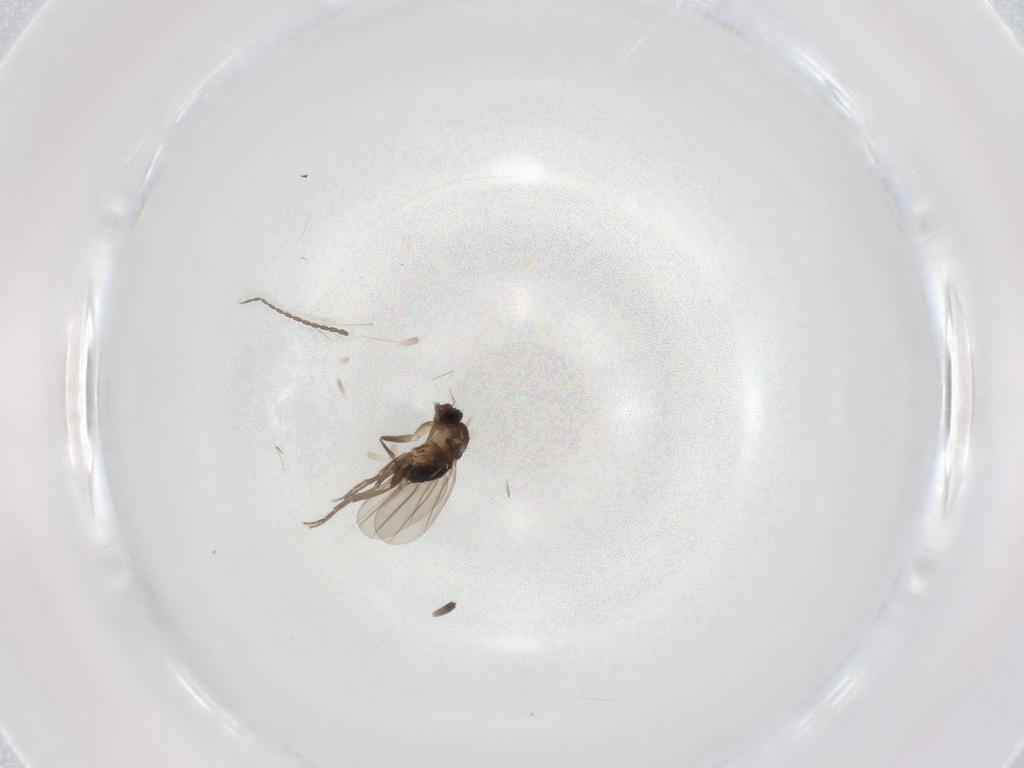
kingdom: Animalia
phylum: Arthropoda
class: Insecta
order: Diptera
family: Phoridae
